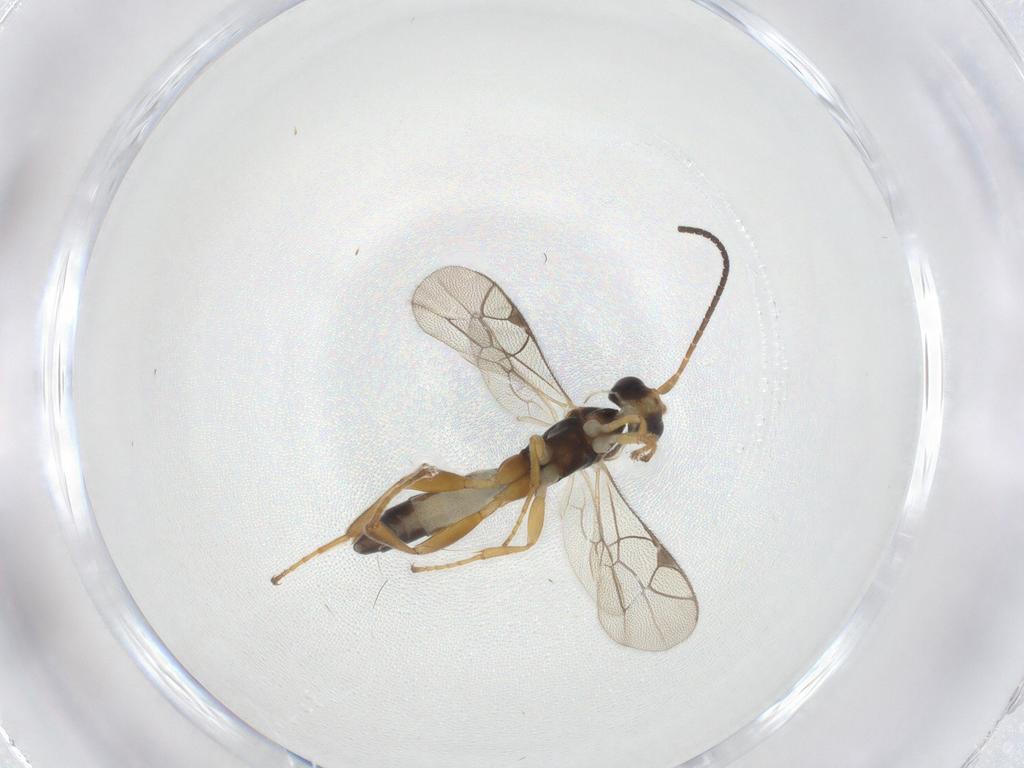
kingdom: Animalia
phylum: Arthropoda
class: Insecta
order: Hymenoptera
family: Ichneumonidae
